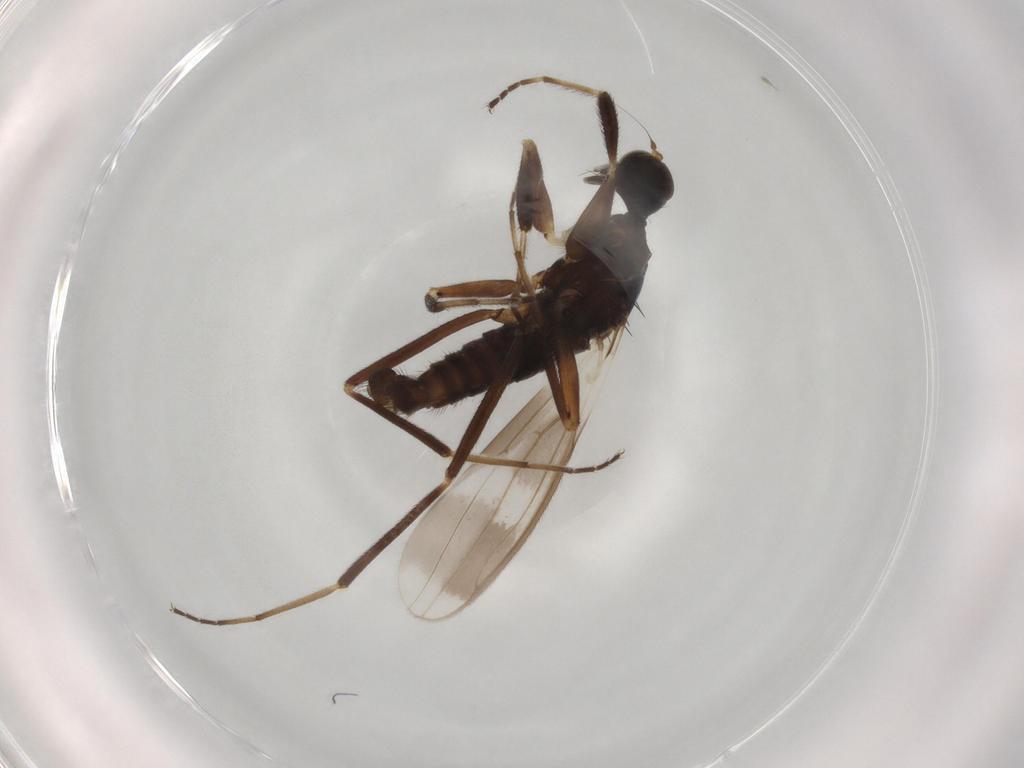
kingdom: Animalia
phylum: Arthropoda
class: Insecta
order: Diptera
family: Hybotidae
